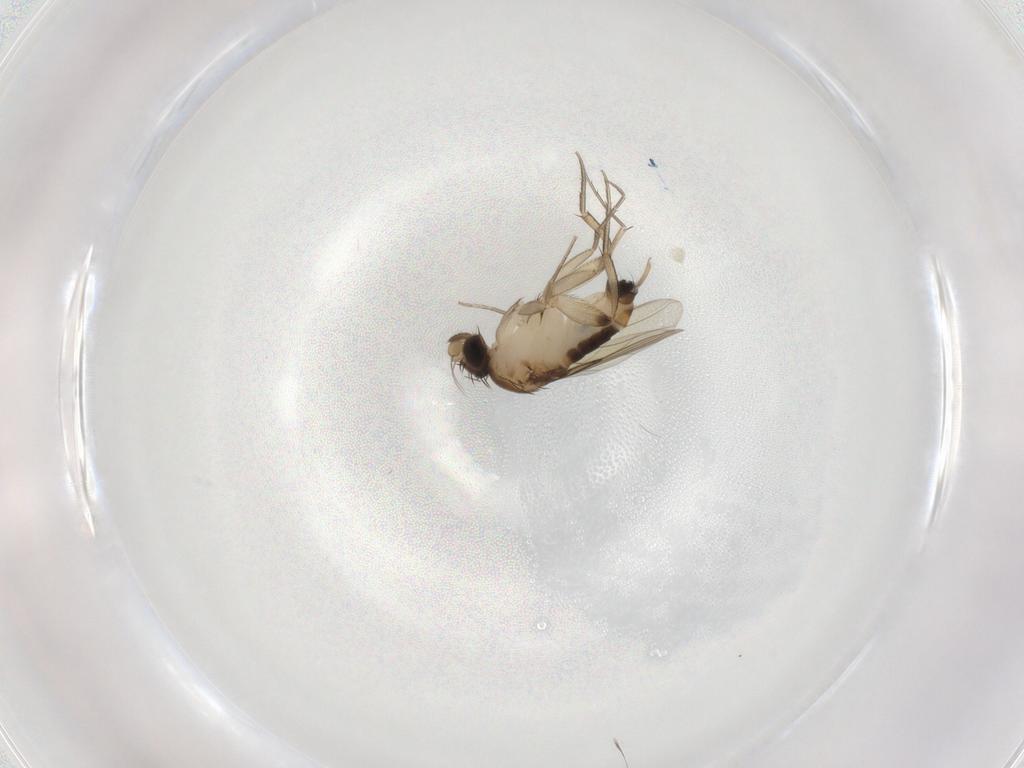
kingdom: Animalia
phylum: Arthropoda
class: Insecta
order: Diptera
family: Phoridae
